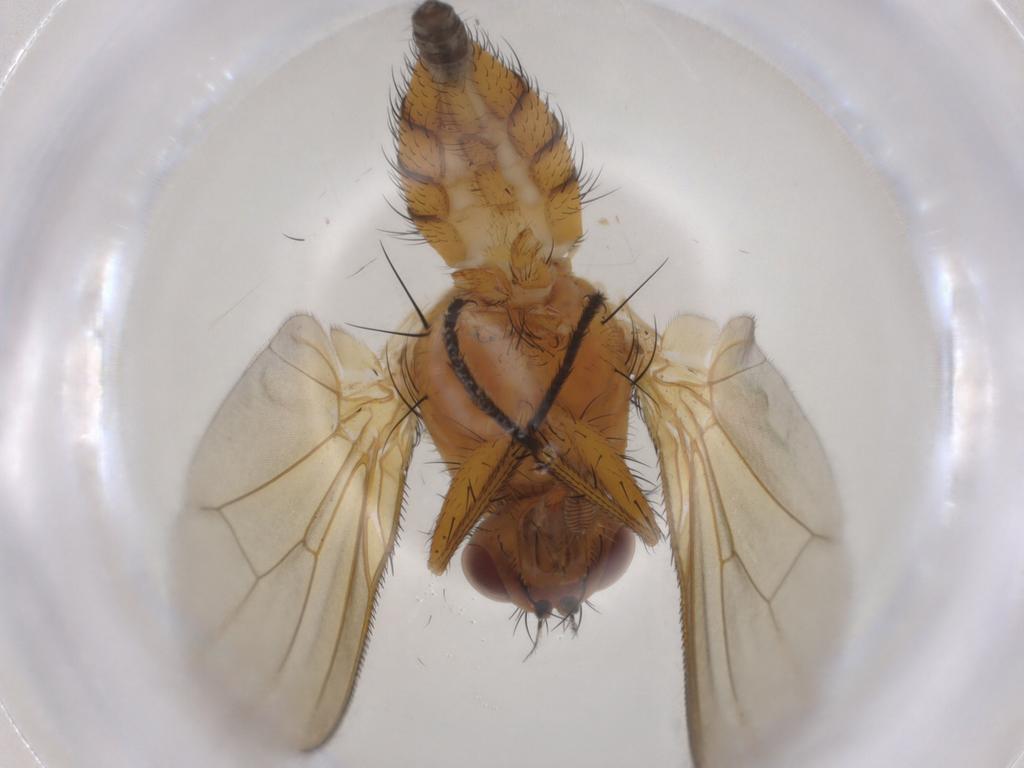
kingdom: Animalia
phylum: Arthropoda
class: Insecta
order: Diptera
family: Anthomyiidae
